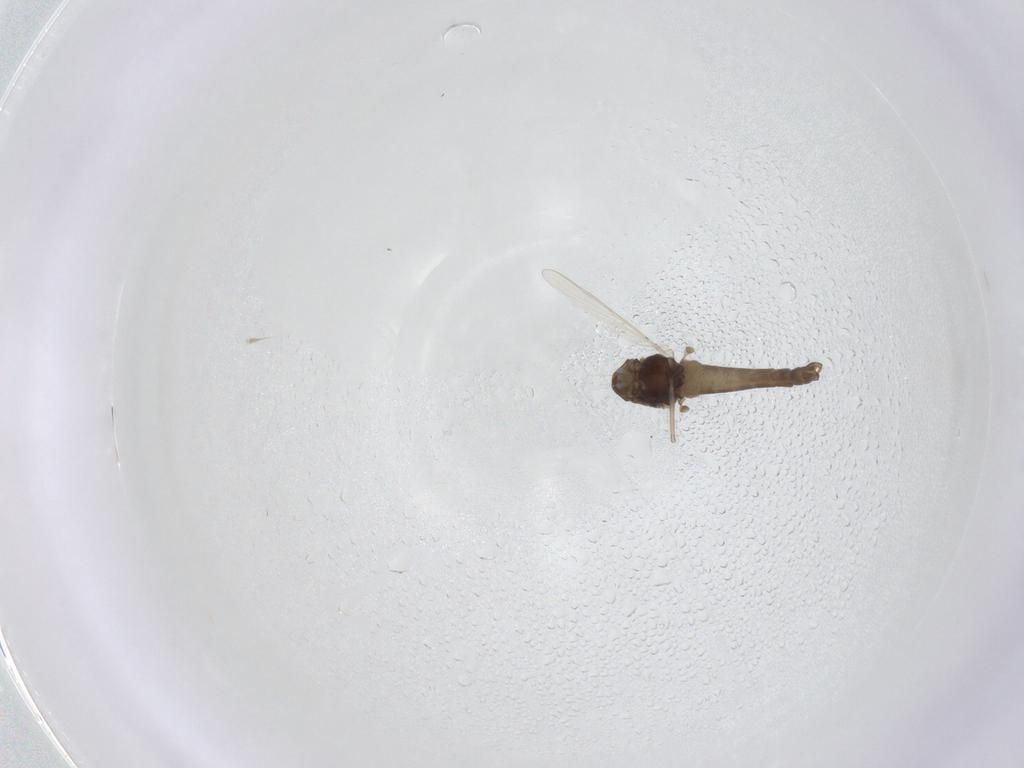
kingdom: Animalia
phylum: Arthropoda
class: Insecta
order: Diptera
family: Chironomidae
